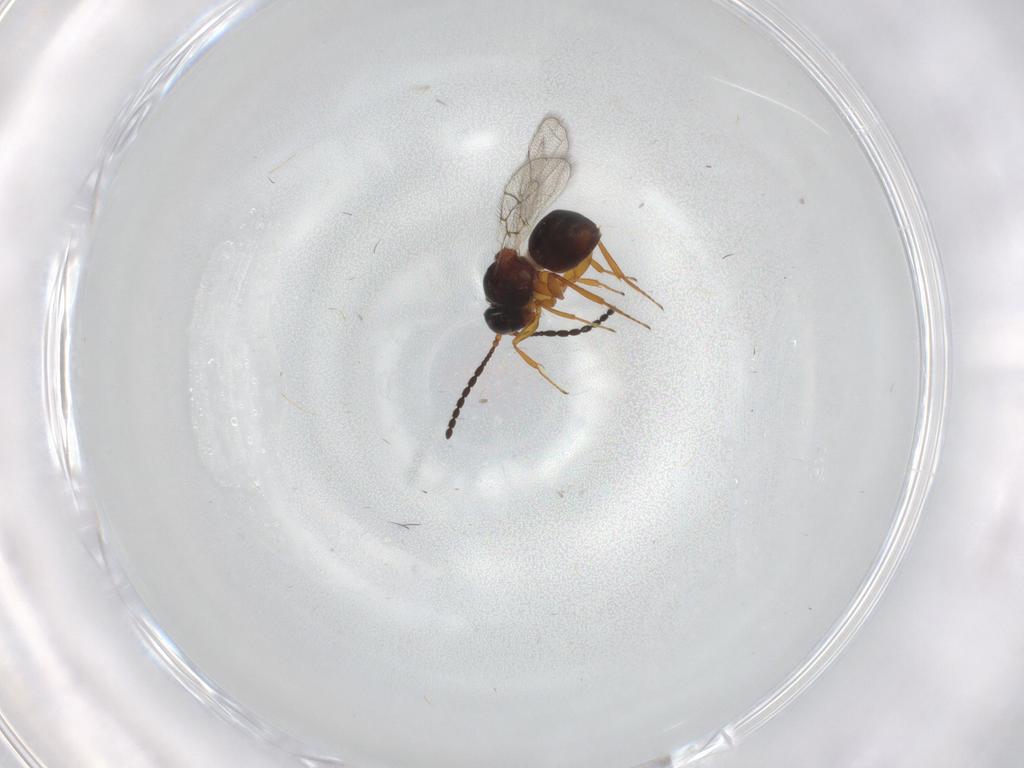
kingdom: Animalia
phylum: Arthropoda
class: Insecta
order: Hymenoptera
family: Figitidae
